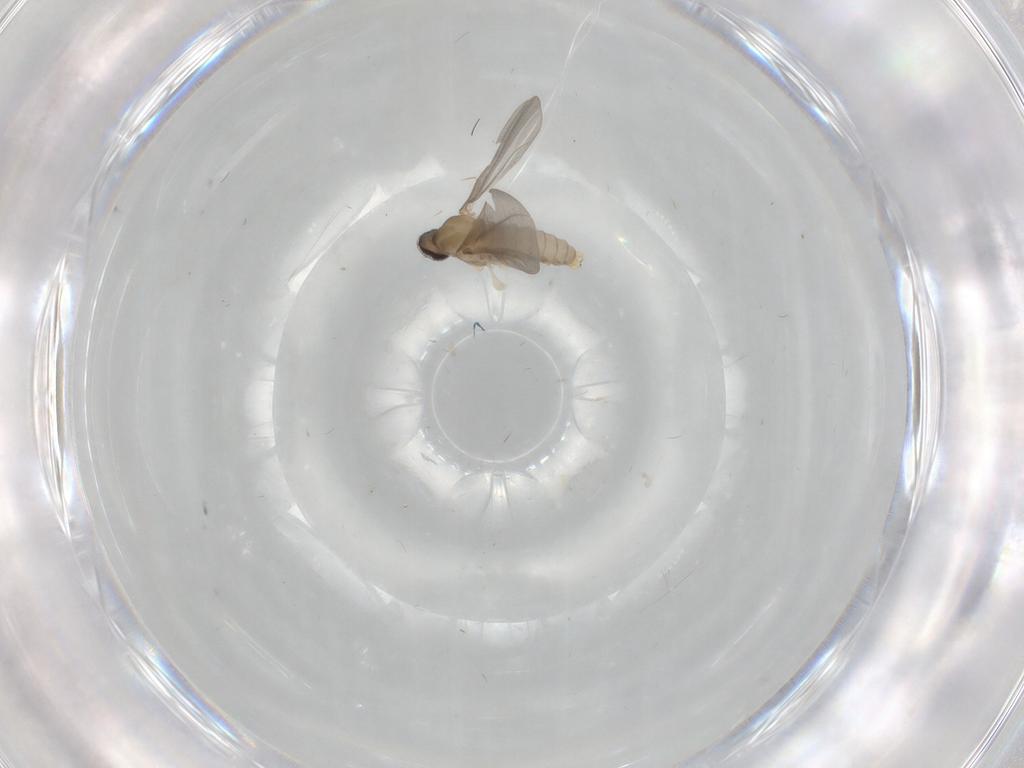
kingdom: Animalia
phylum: Arthropoda
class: Insecta
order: Diptera
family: Cecidomyiidae
